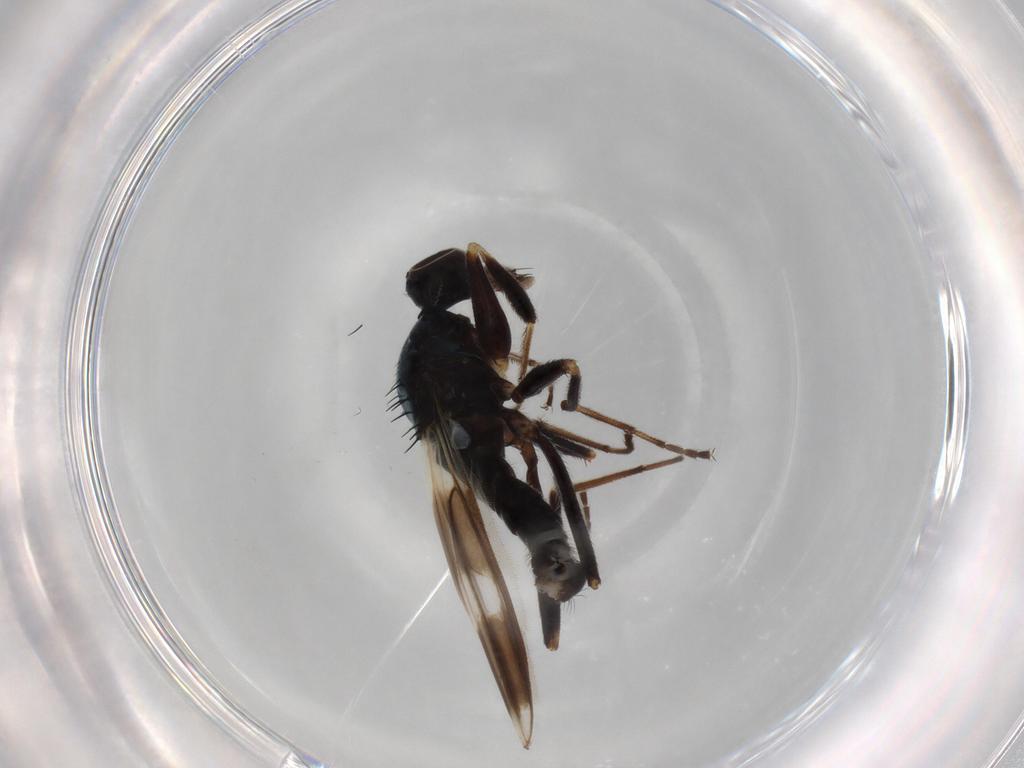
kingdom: Animalia
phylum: Arthropoda
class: Insecta
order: Diptera
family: Hybotidae
